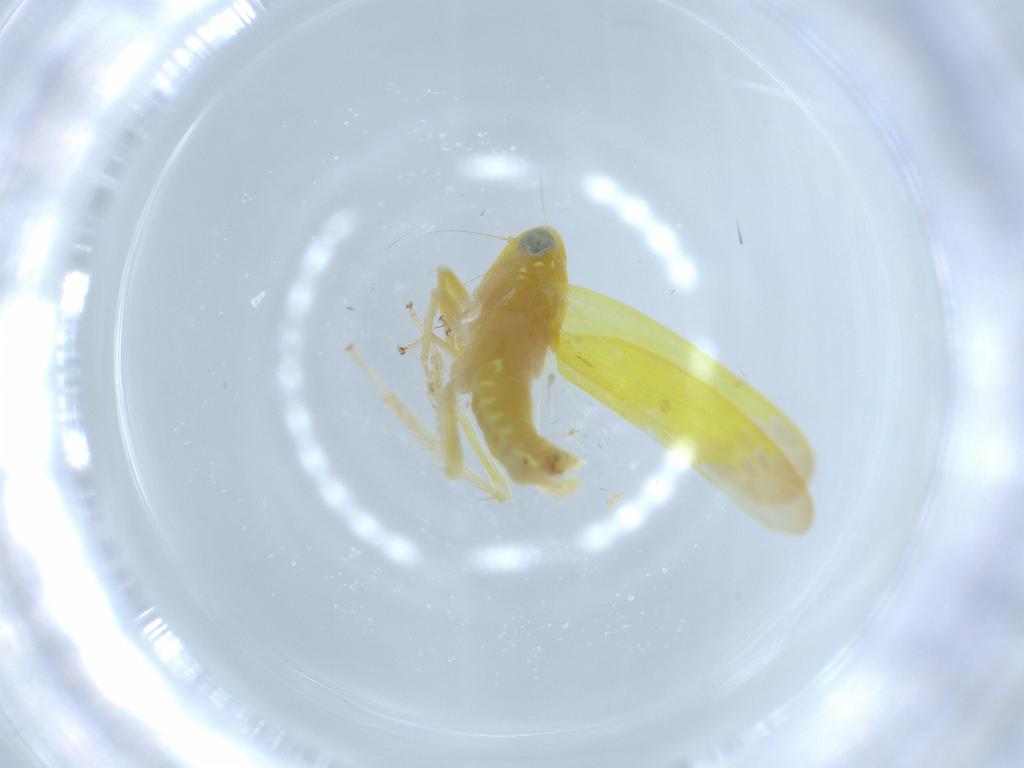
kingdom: Animalia
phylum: Arthropoda
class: Insecta
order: Hemiptera
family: Cicadellidae
